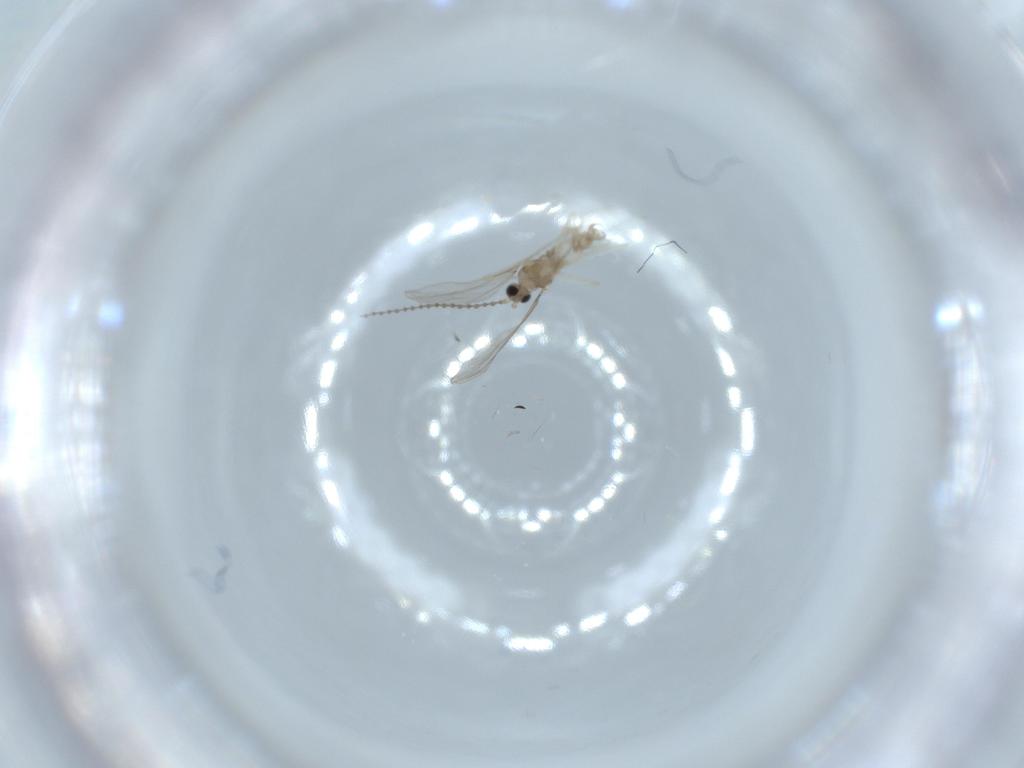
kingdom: Animalia
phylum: Arthropoda
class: Insecta
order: Diptera
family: Cecidomyiidae
